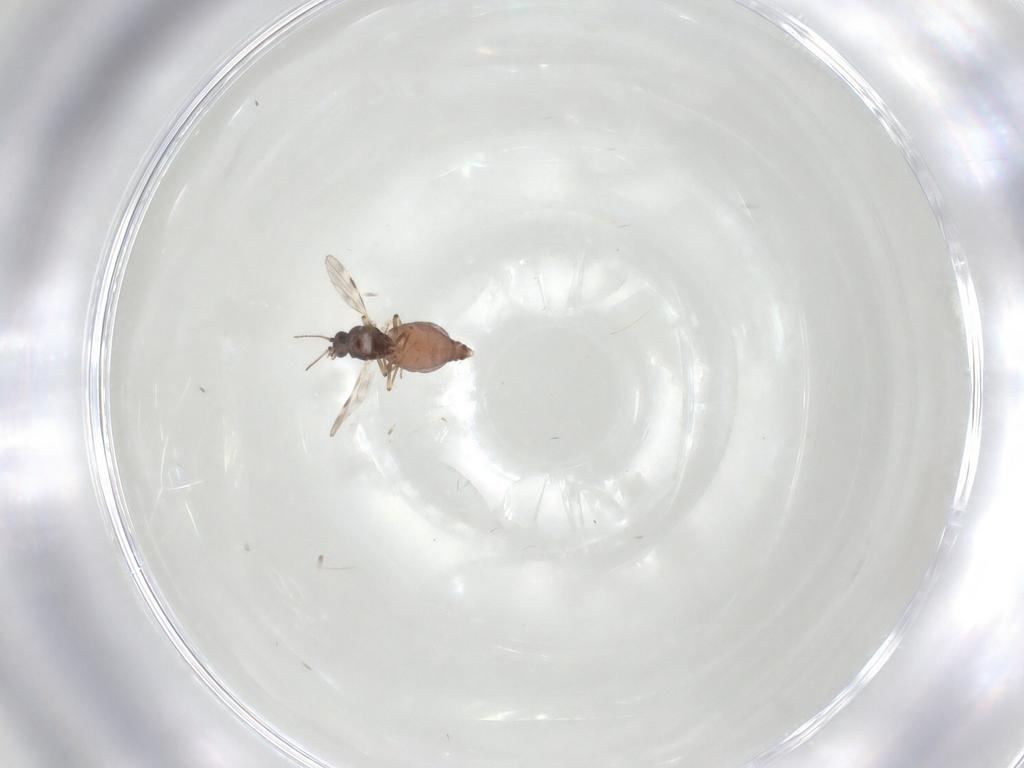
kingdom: Animalia
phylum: Arthropoda
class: Insecta
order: Diptera
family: Sciaridae
